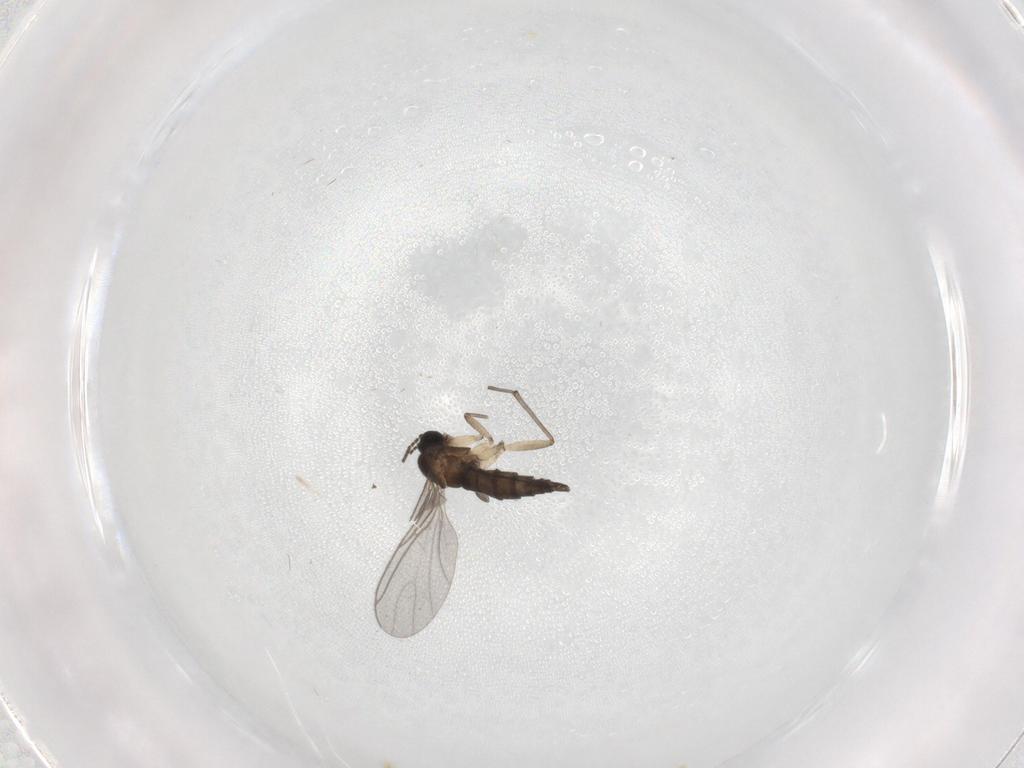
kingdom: Animalia
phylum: Arthropoda
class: Insecta
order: Diptera
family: Sciaridae
